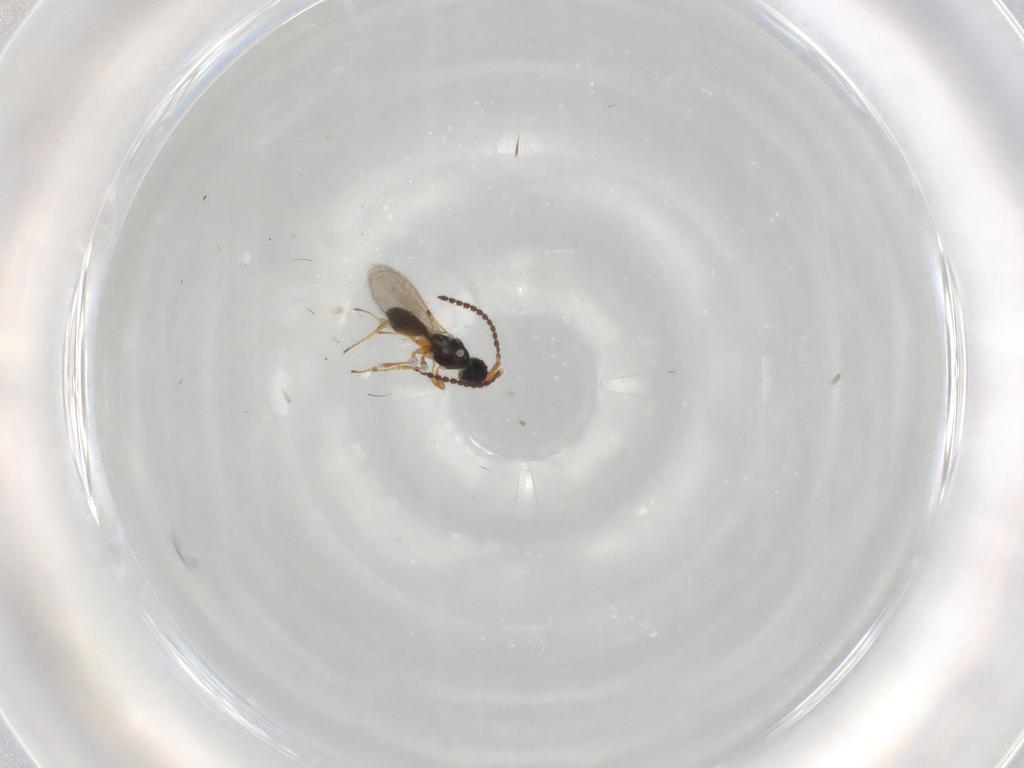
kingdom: Animalia
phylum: Arthropoda
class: Insecta
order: Hymenoptera
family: Diapriidae
